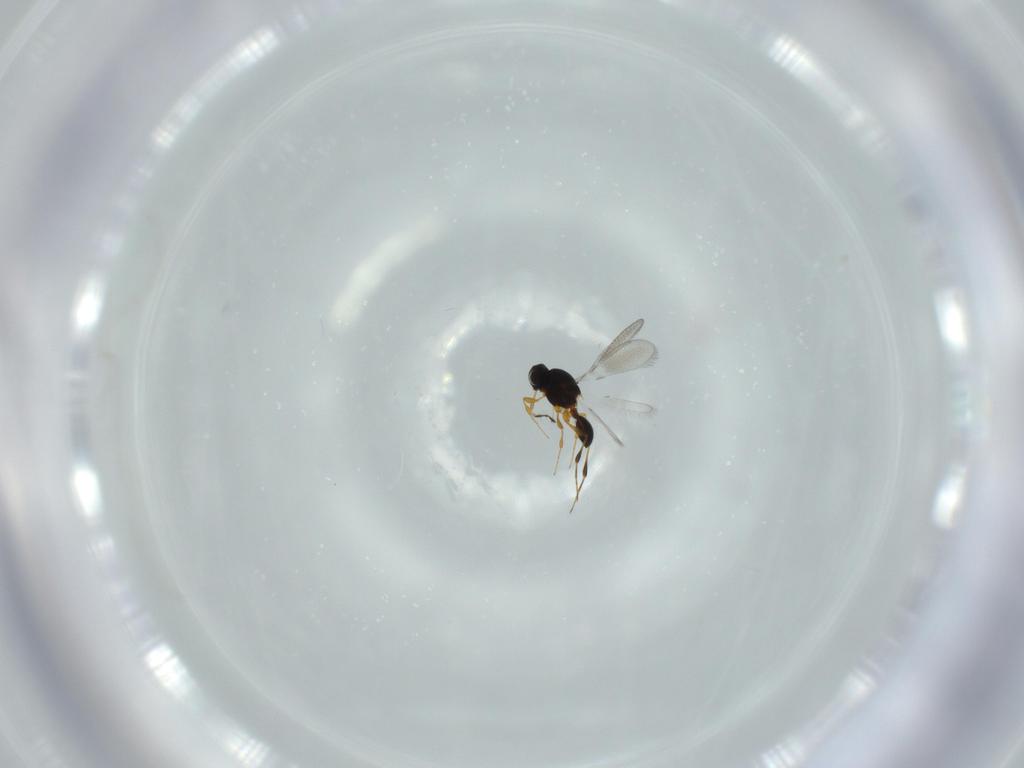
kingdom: Animalia
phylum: Arthropoda
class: Insecta
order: Hymenoptera
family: Platygastridae
